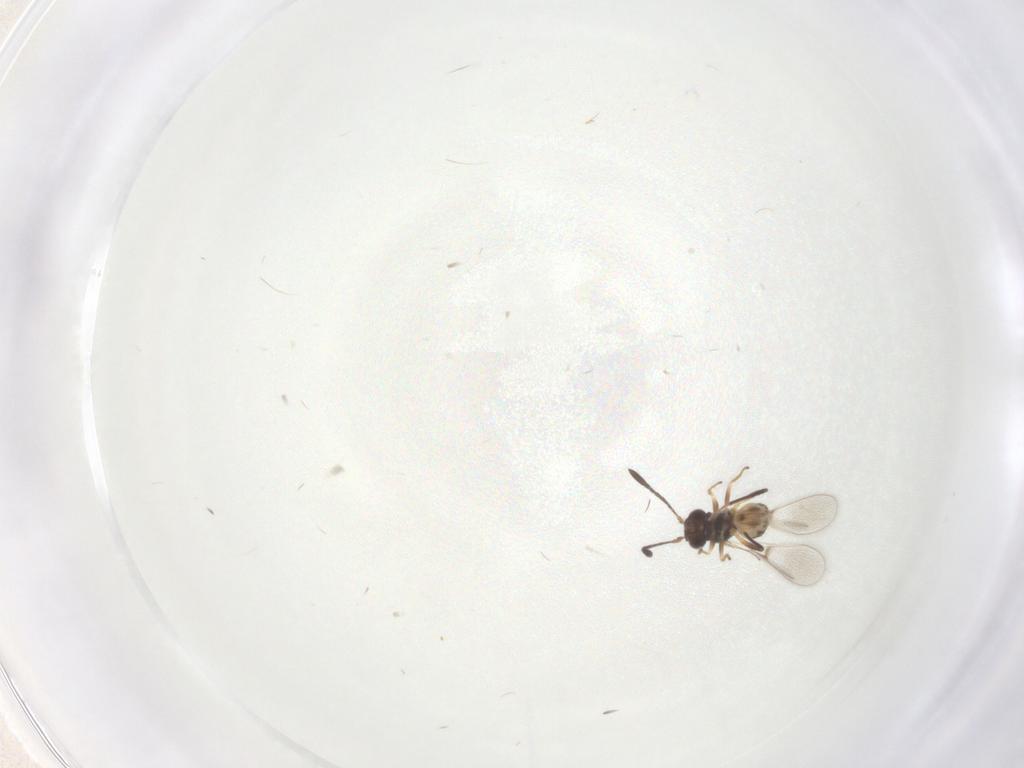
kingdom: Animalia
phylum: Arthropoda
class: Insecta
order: Hymenoptera
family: Mymaridae
